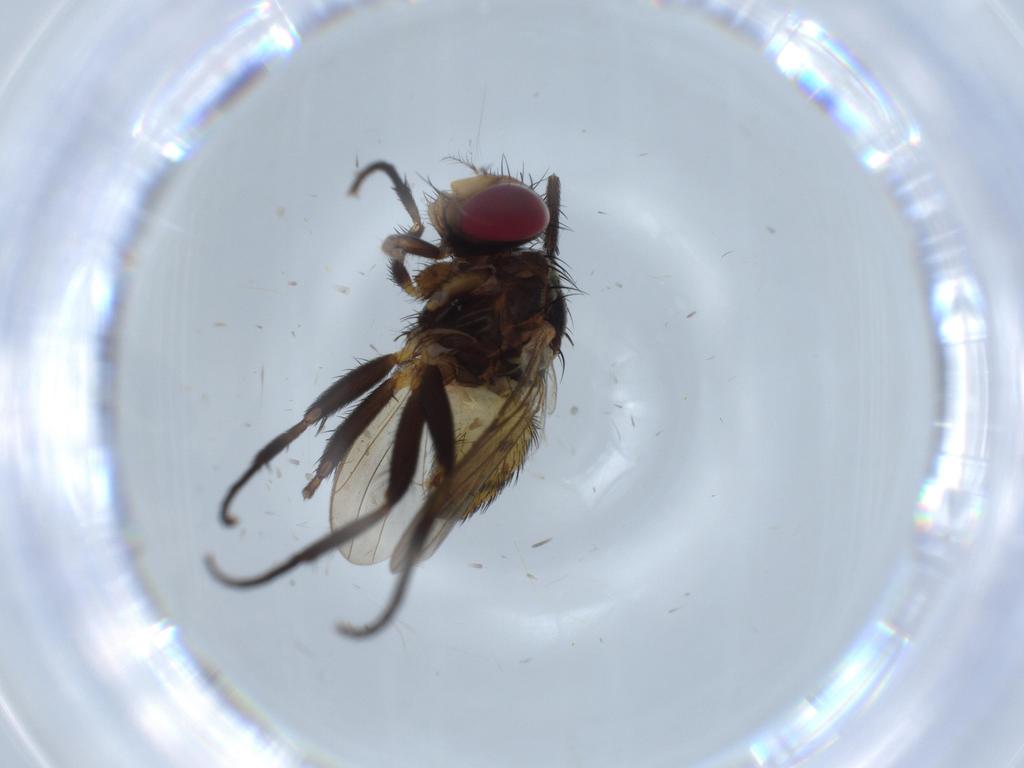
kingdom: Animalia
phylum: Arthropoda
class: Insecta
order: Diptera
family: Anthomyiidae
